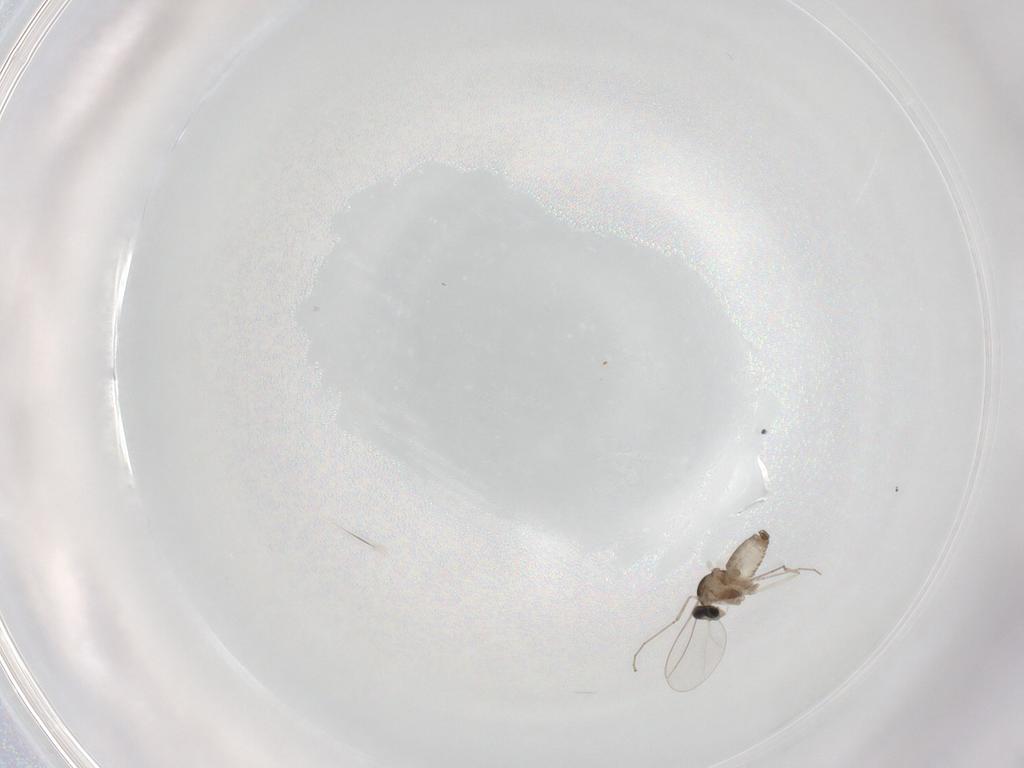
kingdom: Animalia
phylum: Arthropoda
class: Insecta
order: Diptera
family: Cecidomyiidae
